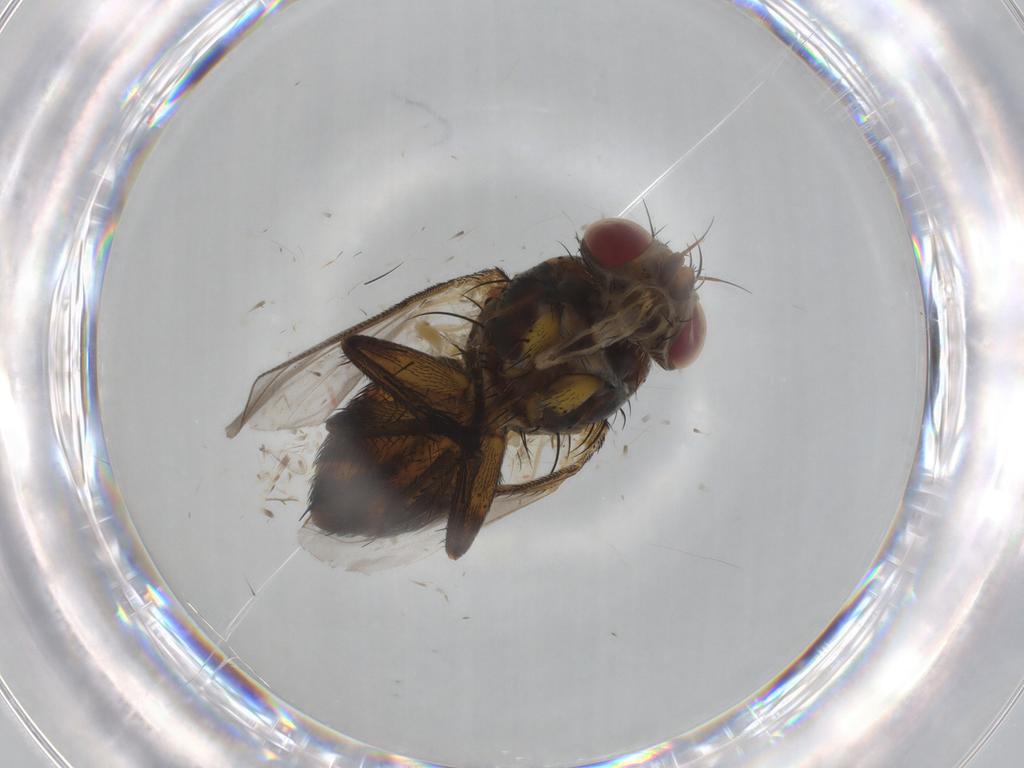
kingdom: Animalia
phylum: Arthropoda
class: Insecta
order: Diptera
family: Tachinidae
